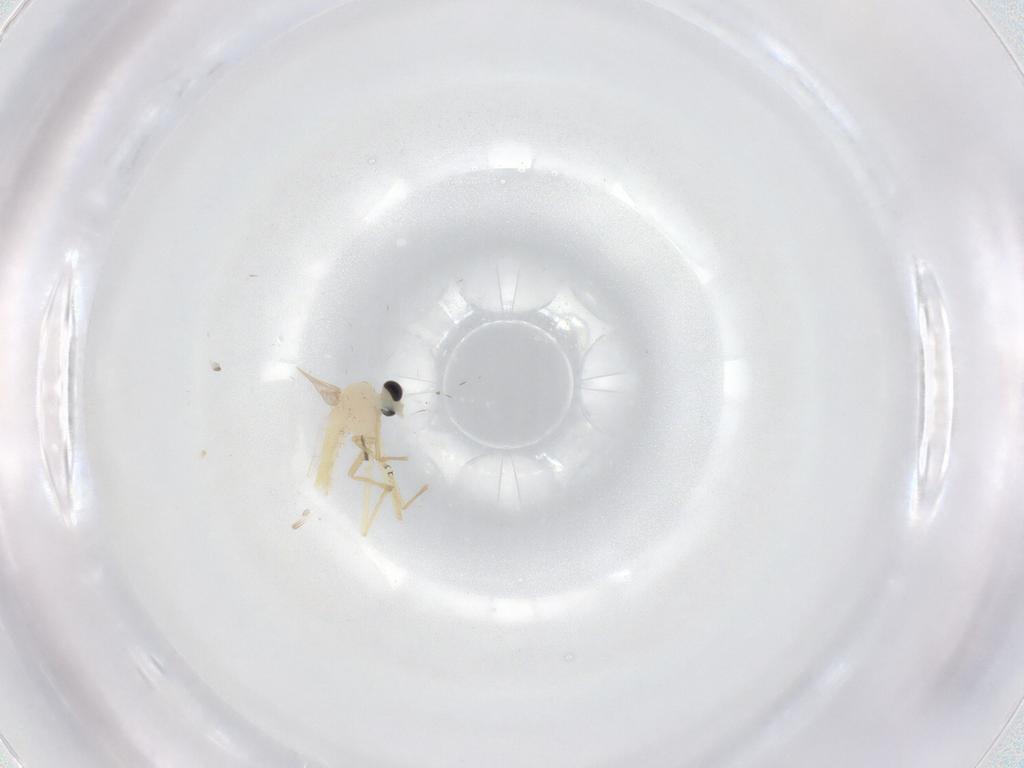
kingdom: Animalia
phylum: Arthropoda
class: Insecta
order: Diptera
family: Chironomidae
